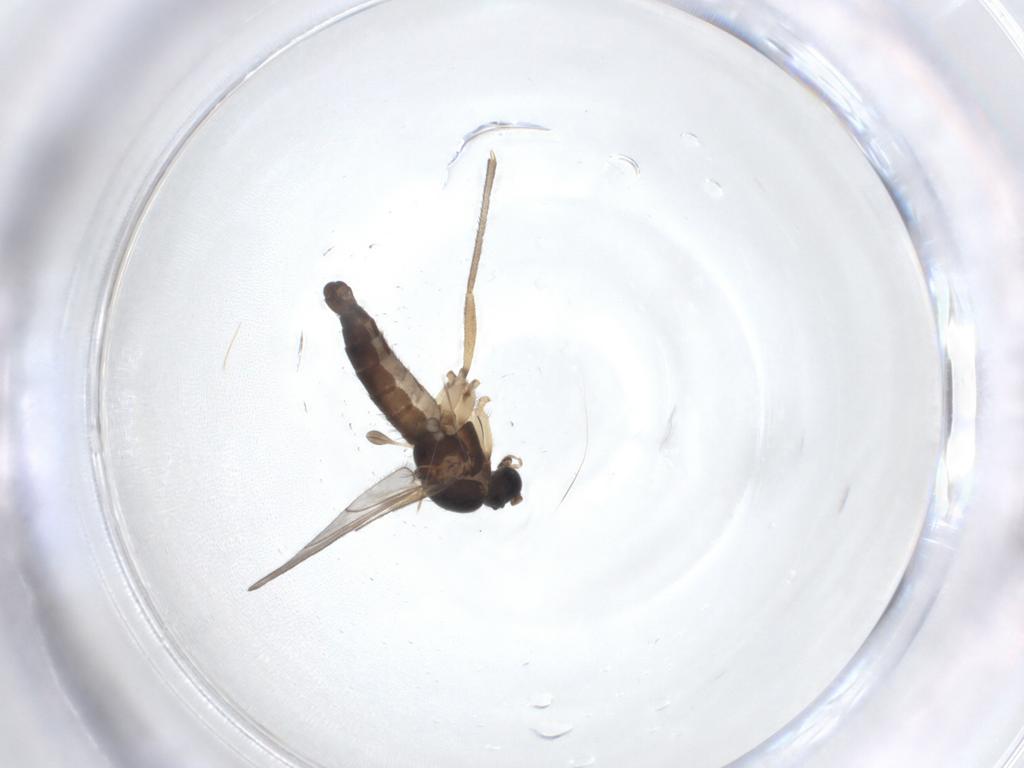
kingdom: Animalia
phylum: Arthropoda
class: Insecta
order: Diptera
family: Sciaridae
